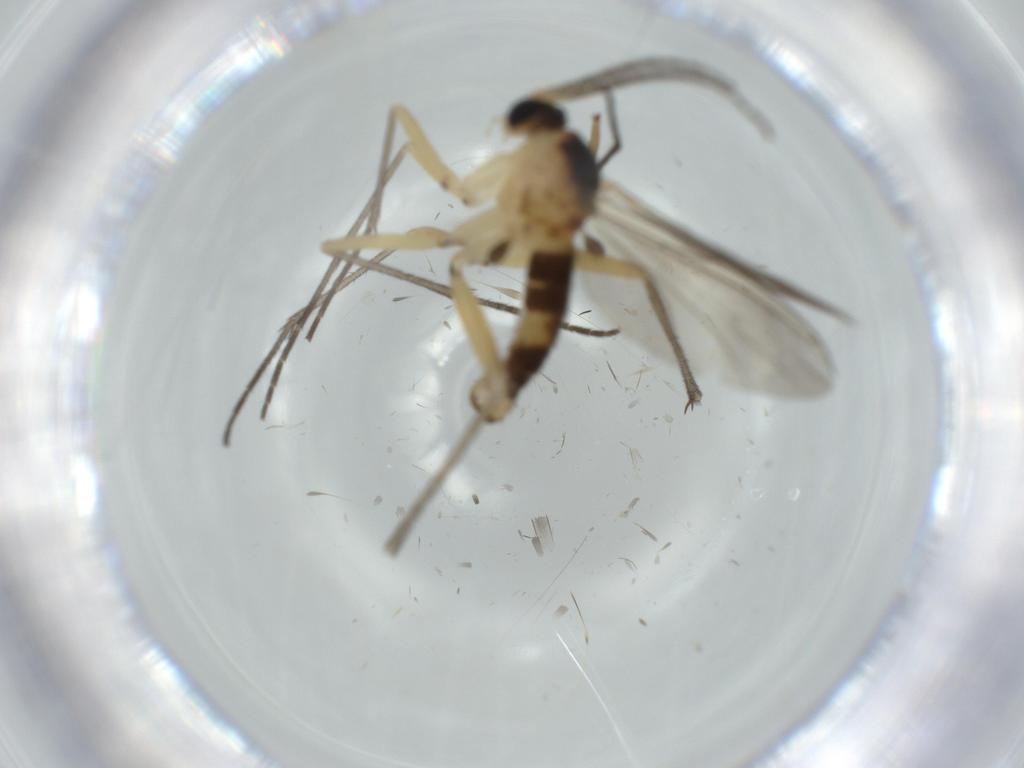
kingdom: Animalia
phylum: Arthropoda
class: Insecta
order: Diptera
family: Sciaridae
